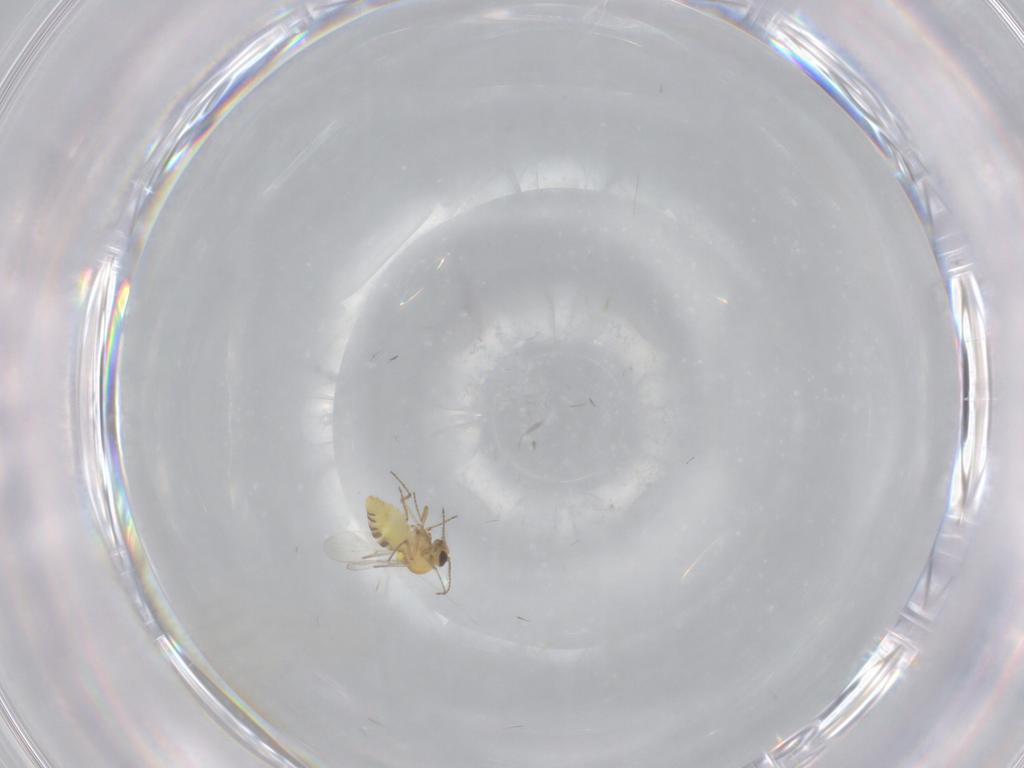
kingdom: Animalia
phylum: Arthropoda
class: Insecta
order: Diptera
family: Ceratopogonidae
